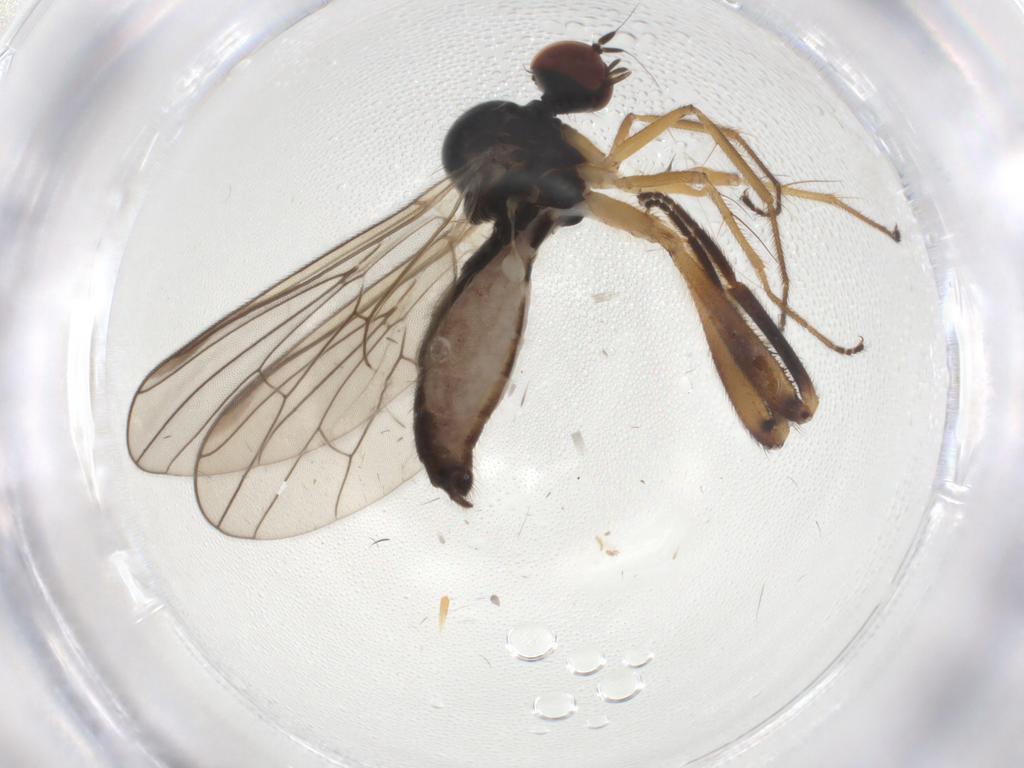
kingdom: Animalia
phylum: Arthropoda
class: Insecta
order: Diptera
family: Hybotidae
